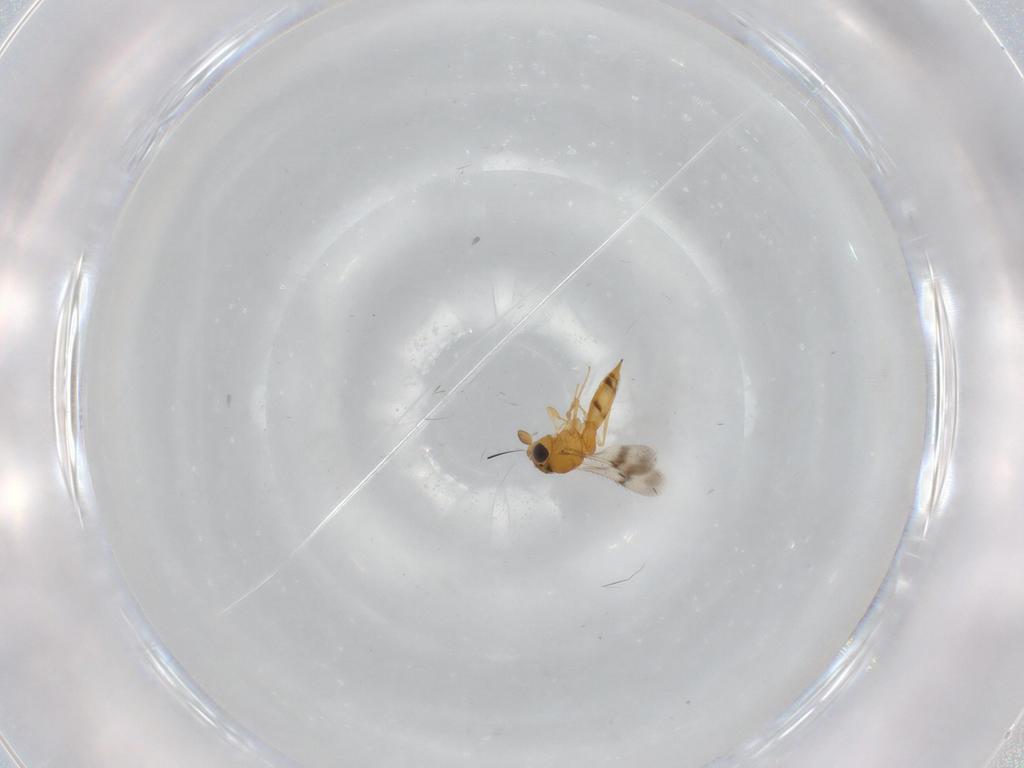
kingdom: Animalia
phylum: Arthropoda
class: Insecta
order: Hymenoptera
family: Scelionidae
